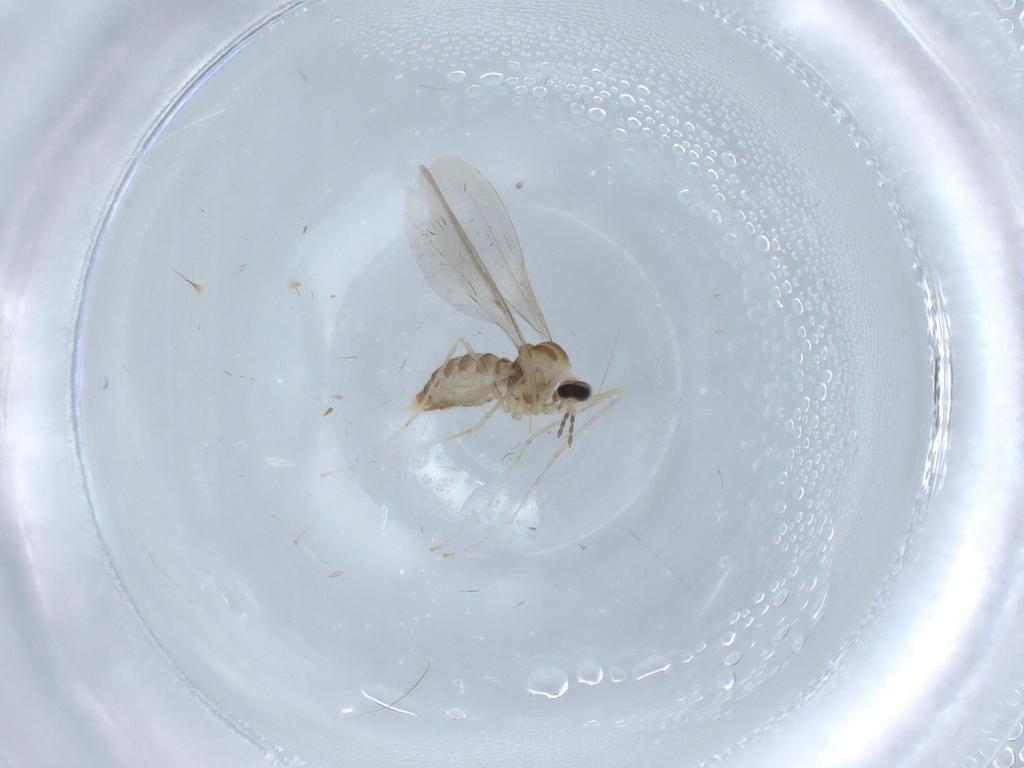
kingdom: Animalia
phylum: Arthropoda
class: Insecta
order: Diptera
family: Cecidomyiidae
